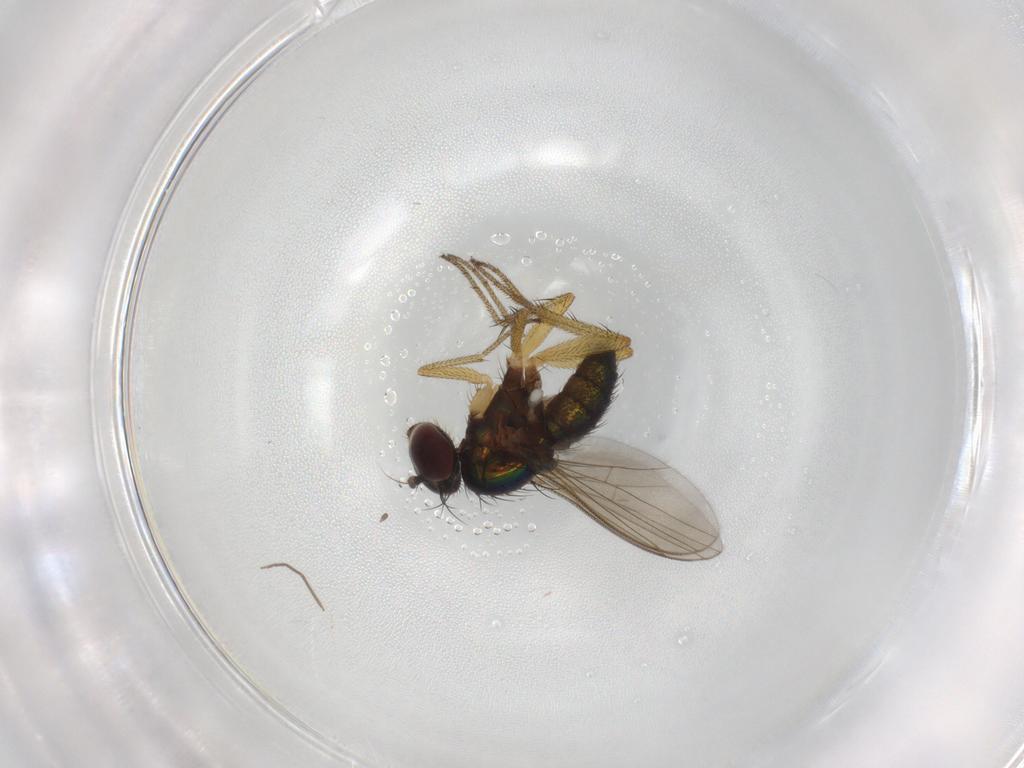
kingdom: Animalia
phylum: Arthropoda
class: Insecta
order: Diptera
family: Dolichopodidae
